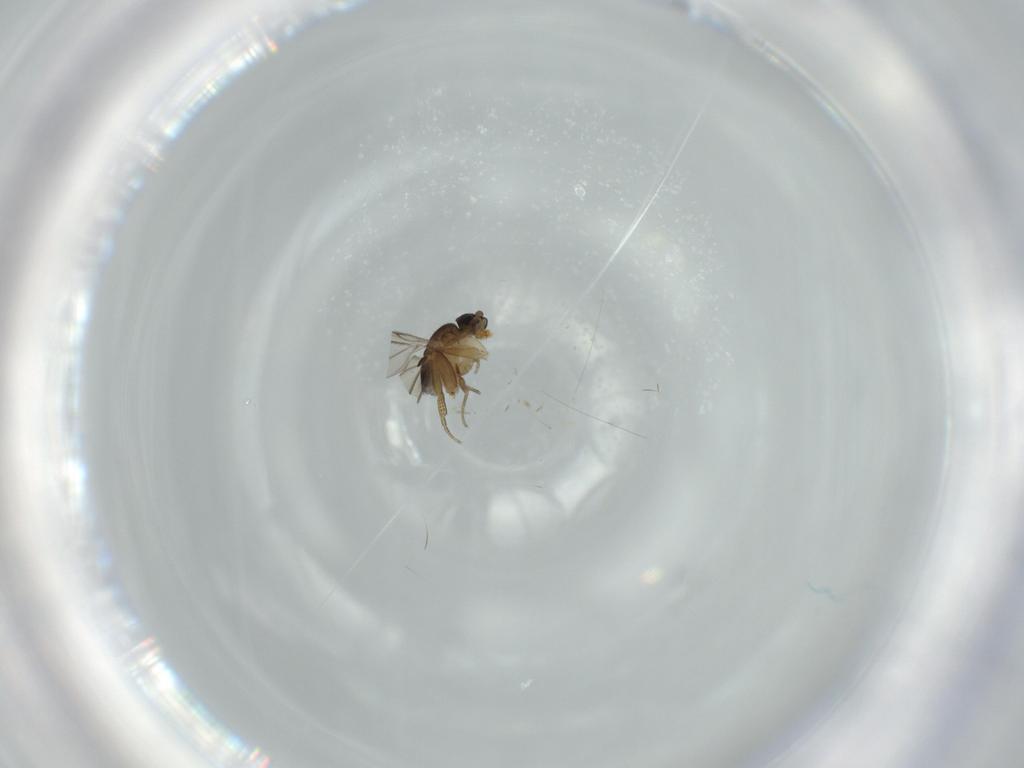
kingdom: Animalia
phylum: Arthropoda
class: Insecta
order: Diptera
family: Phoridae
